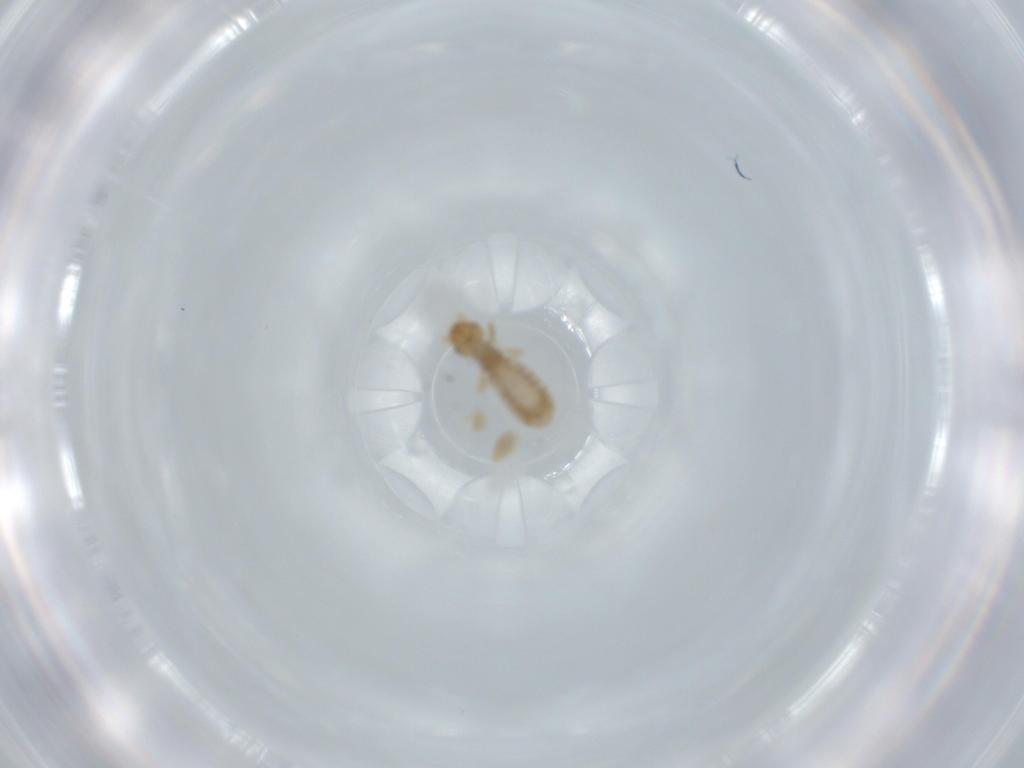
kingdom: Animalia
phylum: Arthropoda
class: Insecta
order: Psocodea
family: Liposcelididae
